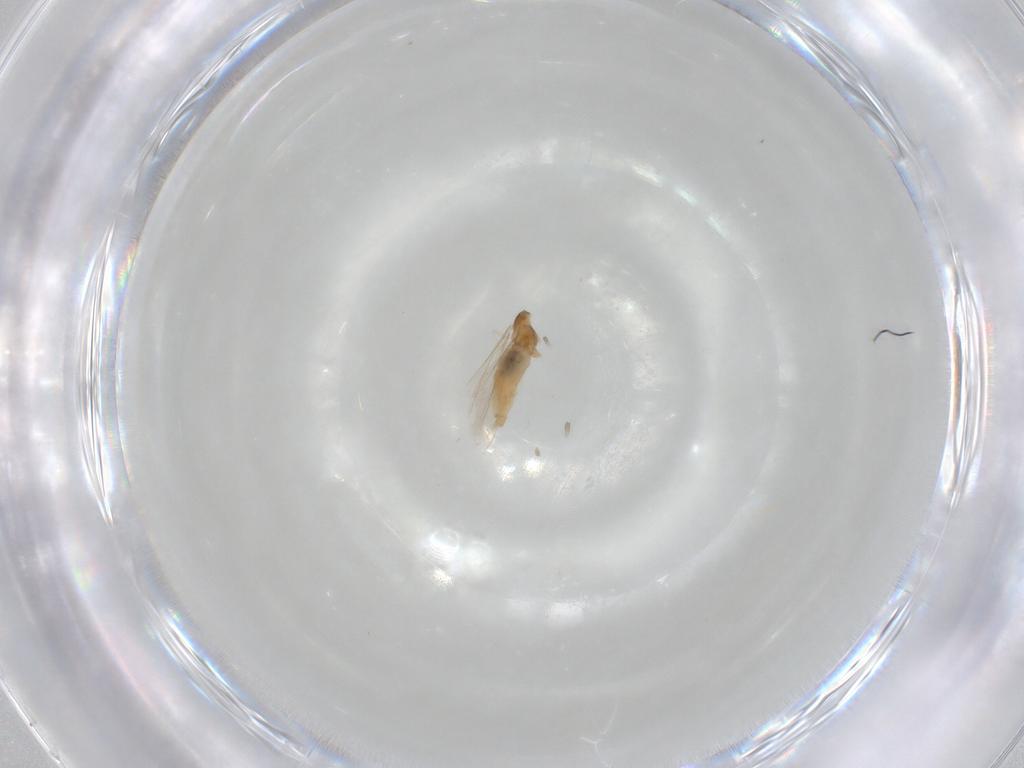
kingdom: Animalia
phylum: Arthropoda
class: Insecta
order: Diptera
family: Cecidomyiidae
